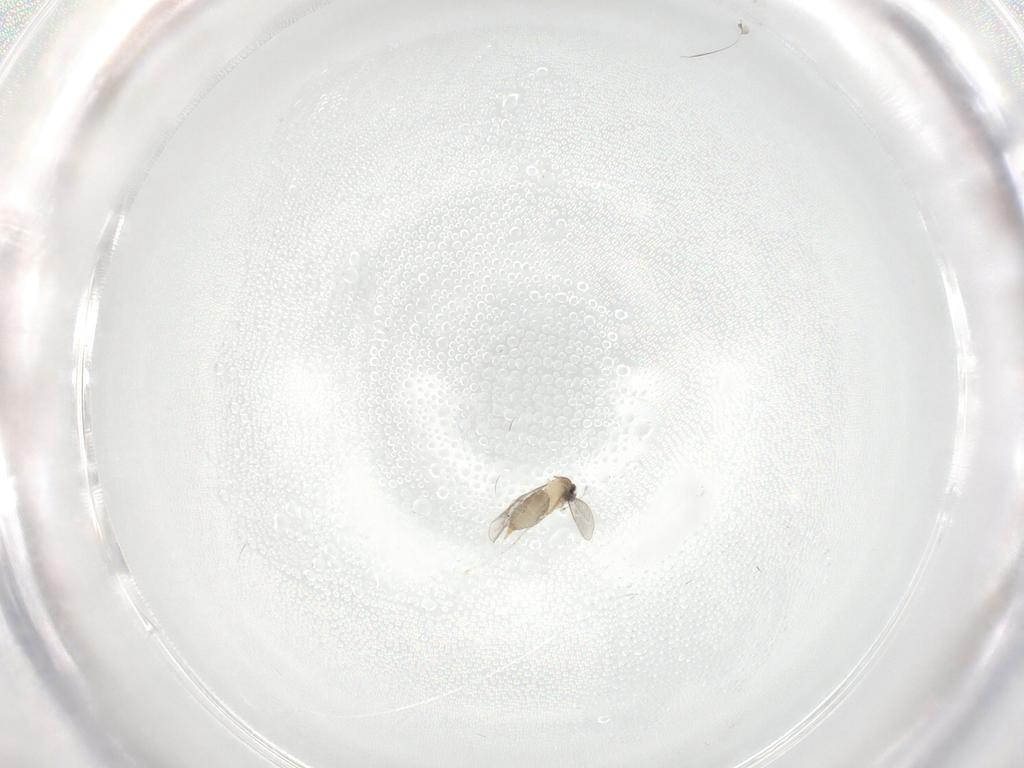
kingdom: Animalia
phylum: Arthropoda
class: Insecta
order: Diptera
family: Cecidomyiidae
